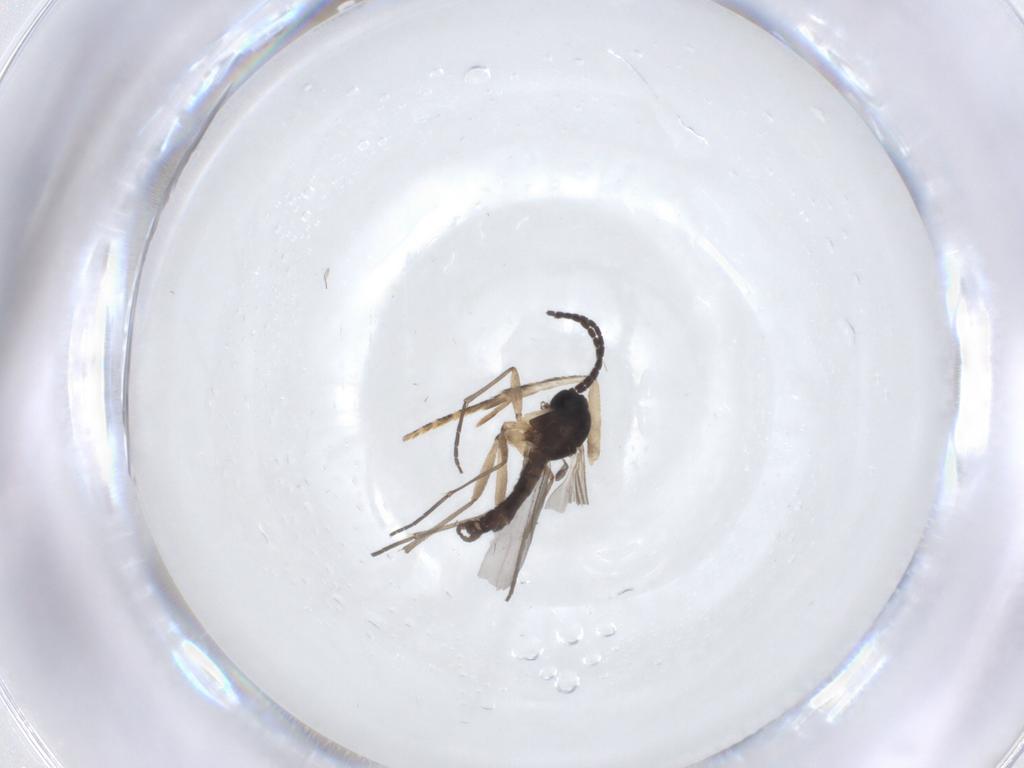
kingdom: Animalia
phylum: Arthropoda
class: Insecta
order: Diptera
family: Sciaridae
